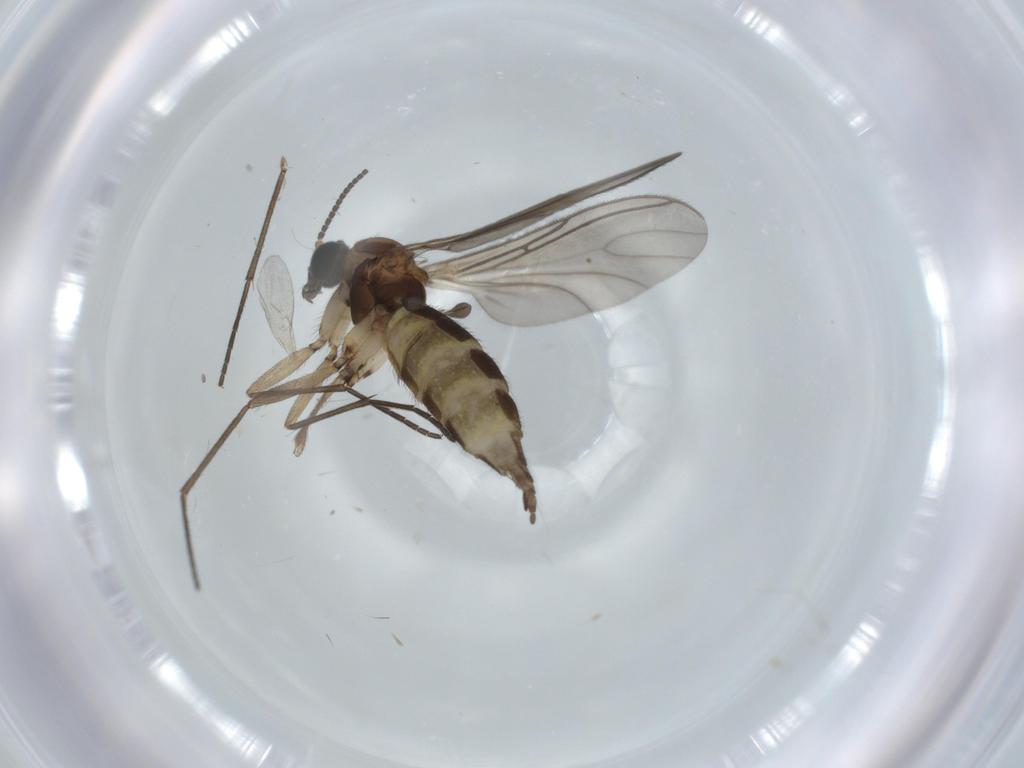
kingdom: Animalia
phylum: Arthropoda
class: Insecta
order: Diptera
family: Sciaridae
